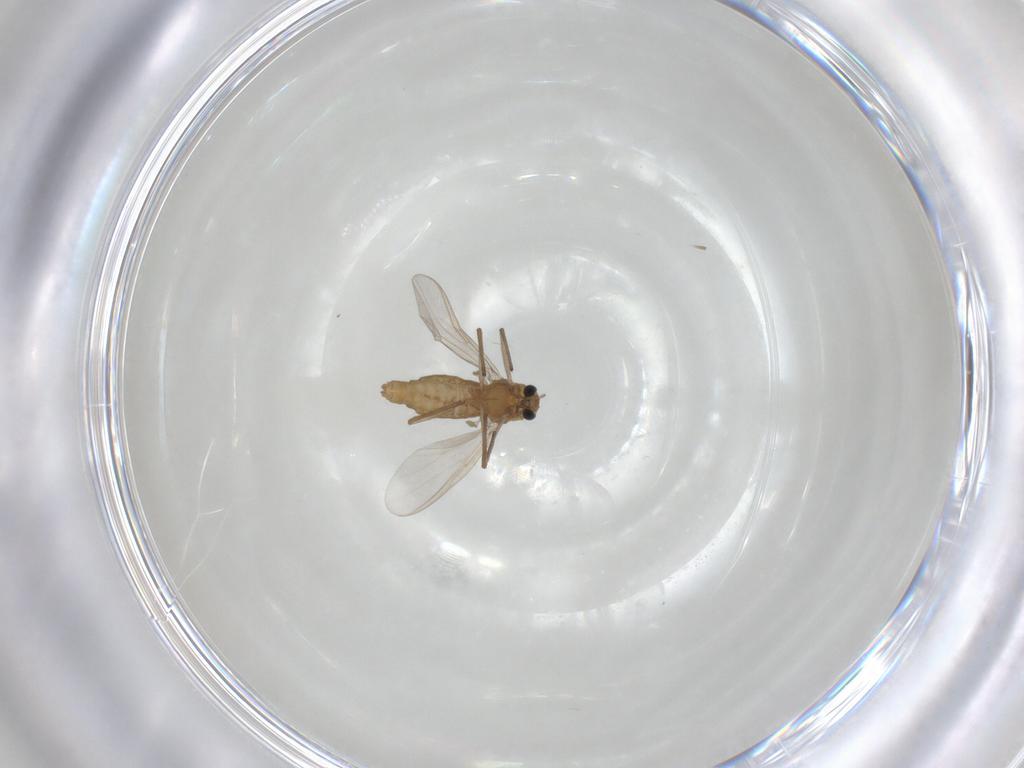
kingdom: Animalia
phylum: Arthropoda
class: Insecta
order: Diptera
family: Chironomidae
